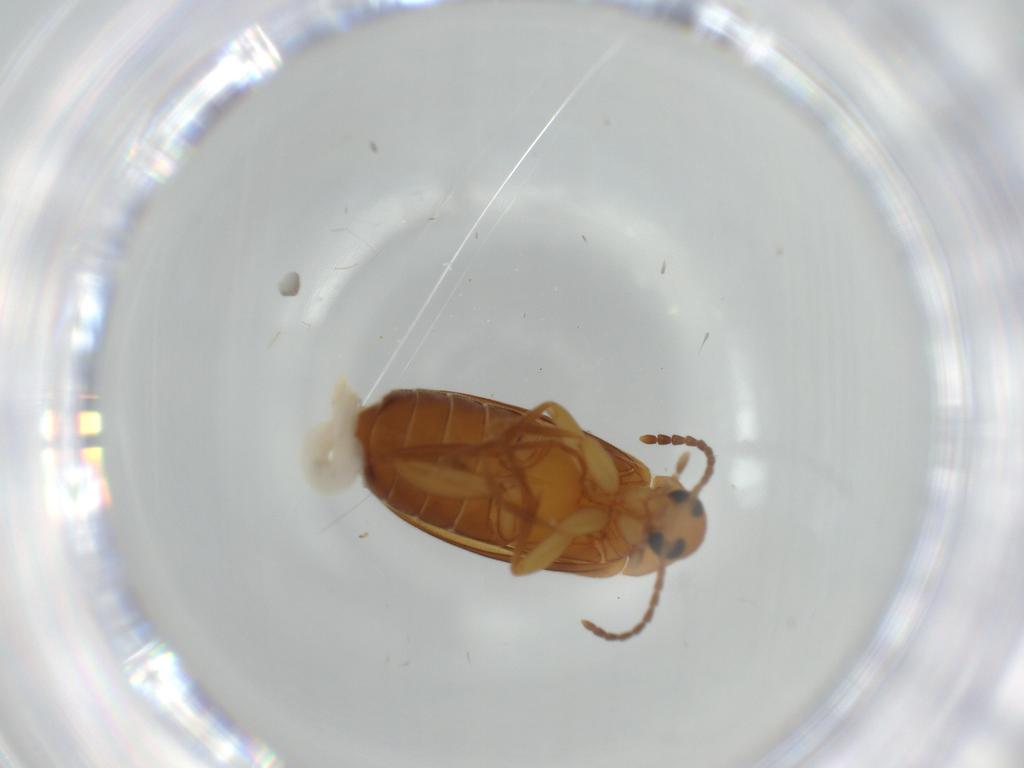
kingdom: Animalia
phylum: Arthropoda
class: Insecta
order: Coleoptera
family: Scraptiidae
